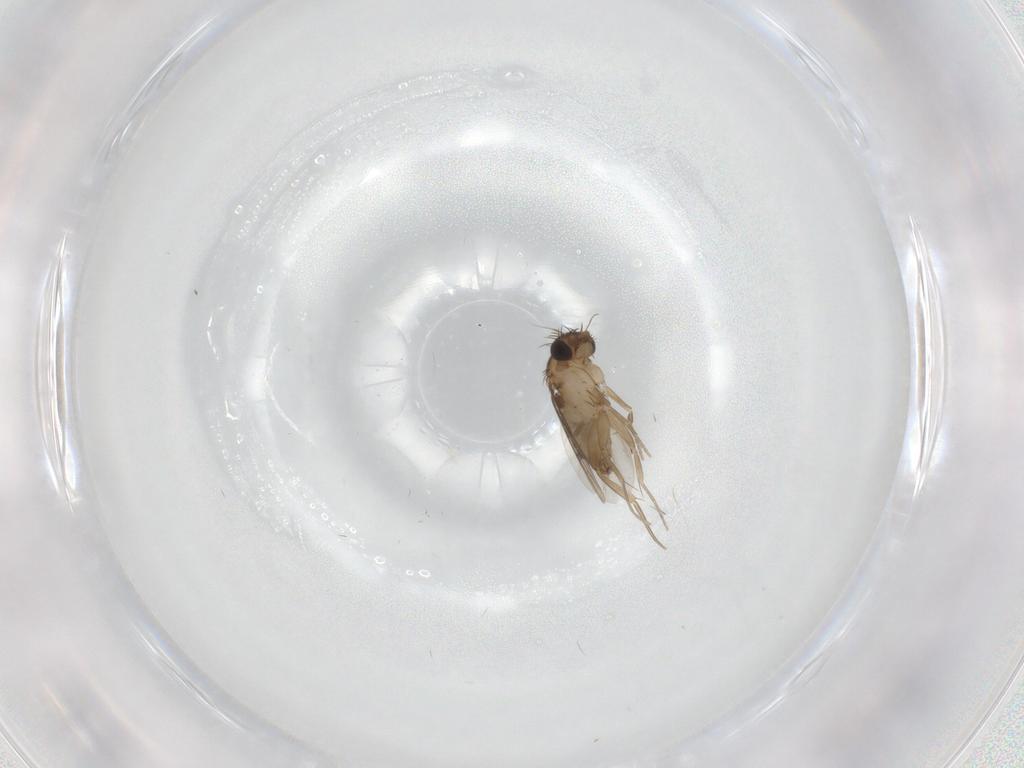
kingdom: Animalia
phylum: Arthropoda
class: Insecta
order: Diptera
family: Phoridae
